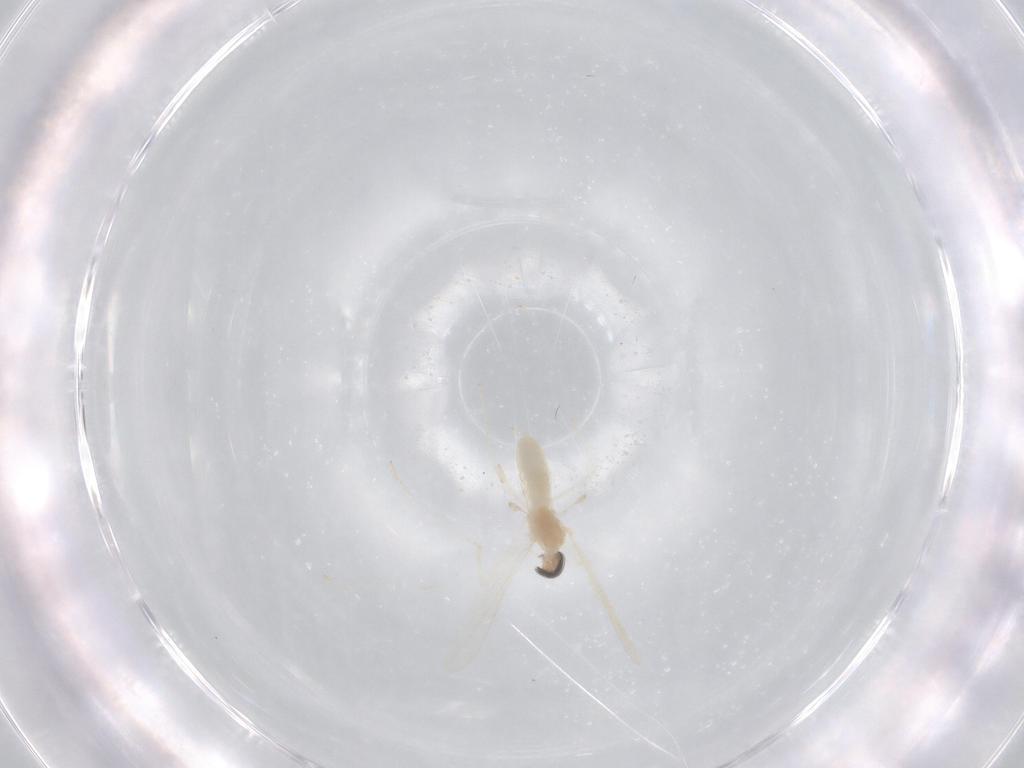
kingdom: Animalia
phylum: Arthropoda
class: Insecta
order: Diptera
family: Cecidomyiidae
